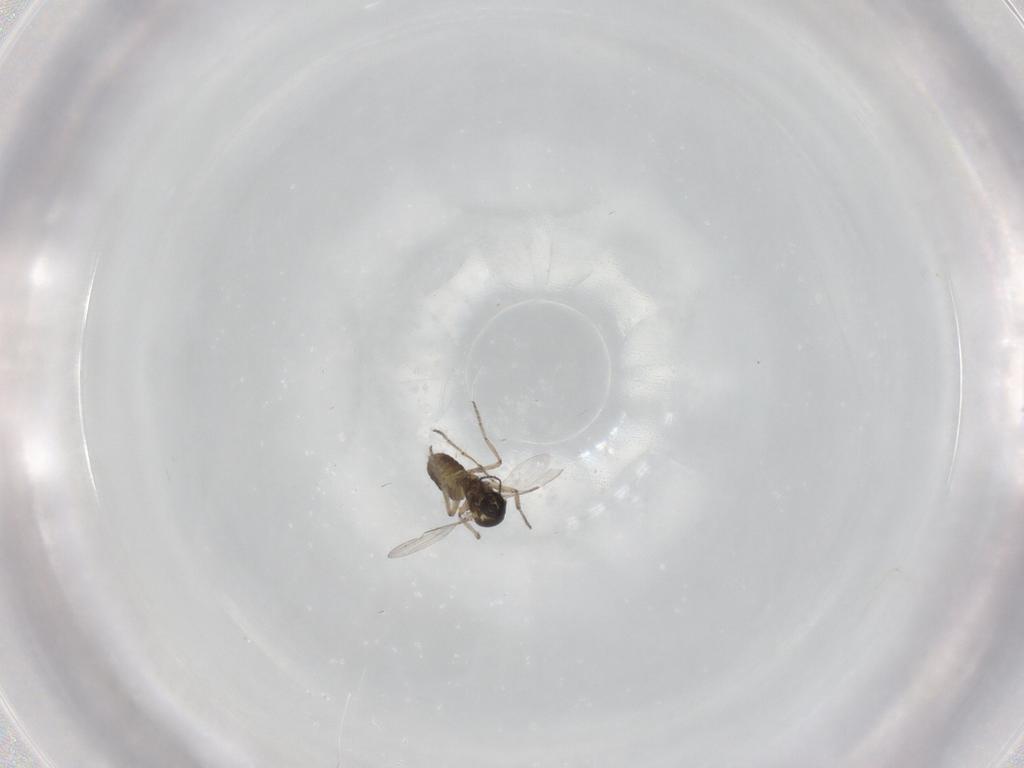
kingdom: Animalia
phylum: Arthropoda
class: Insecta
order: Diptera
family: Ceratopogonidae
